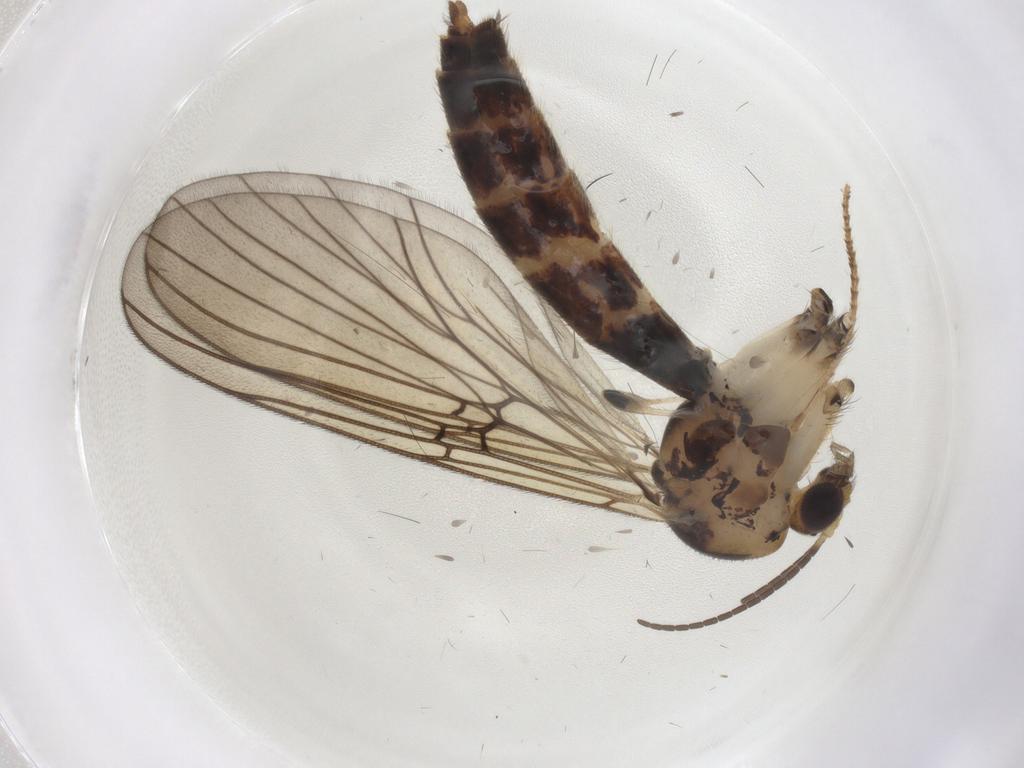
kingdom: Animalia
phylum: Arthropoda
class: Insecta
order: Diptera
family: Mycetophilidae
